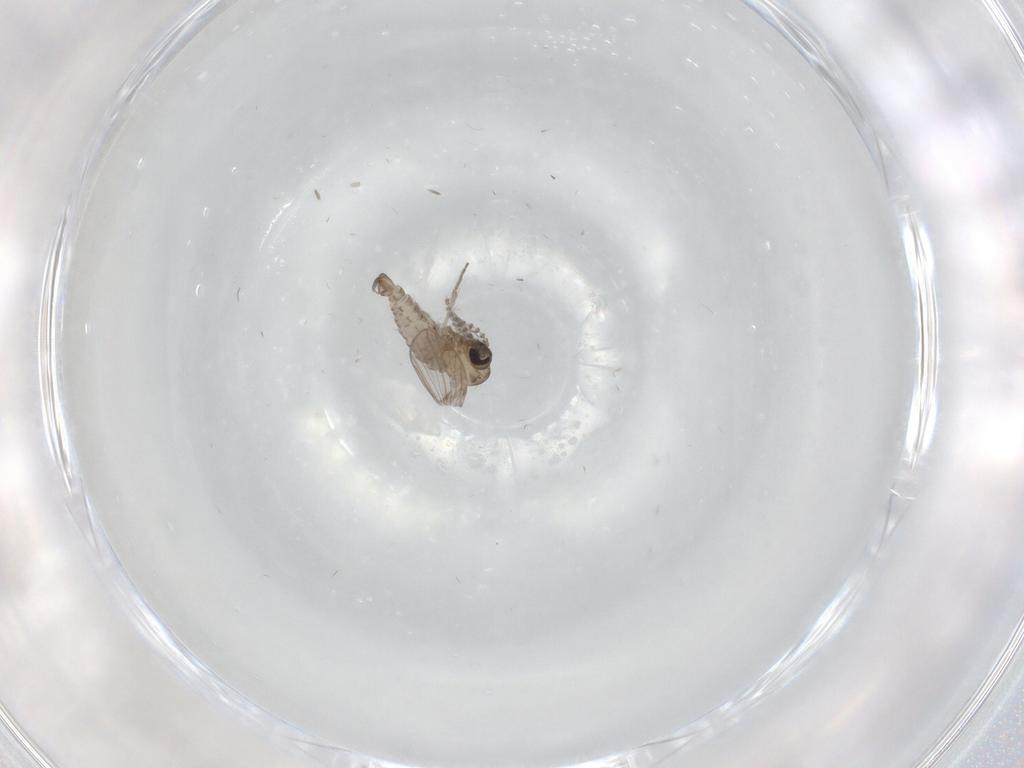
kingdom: Animalia
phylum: Arthropoda
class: Insecta
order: Diptera
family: Psychodidae
